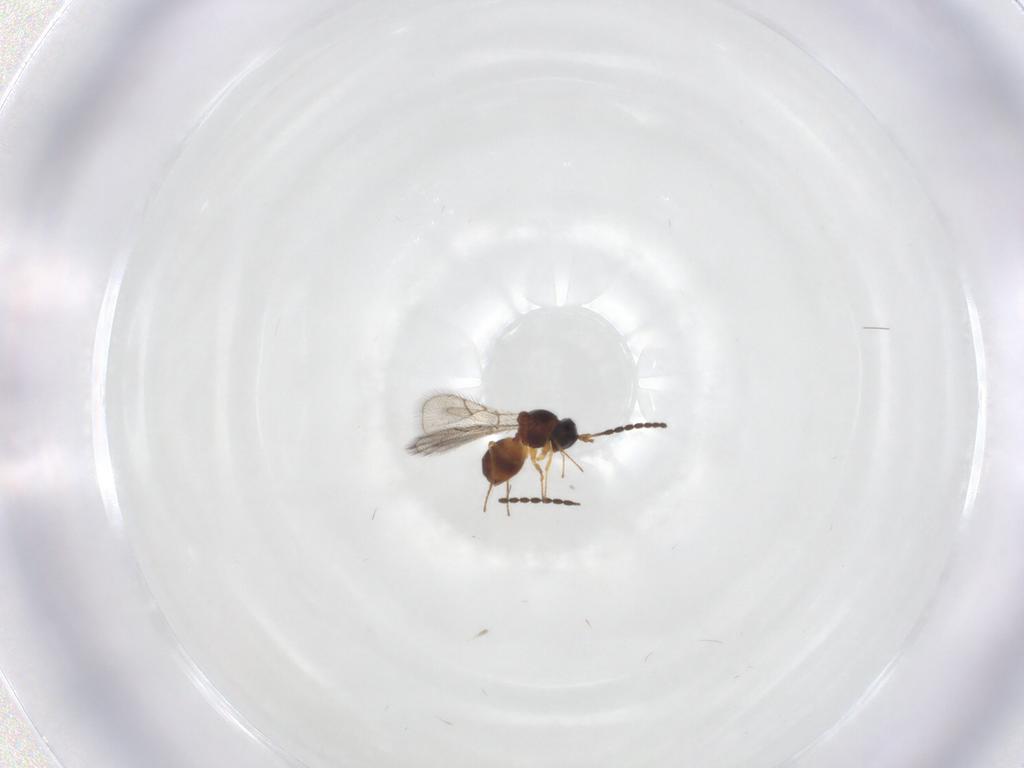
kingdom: Animalia
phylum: Arthropoda
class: Insecta
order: Hymenoptera
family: Figitidae
